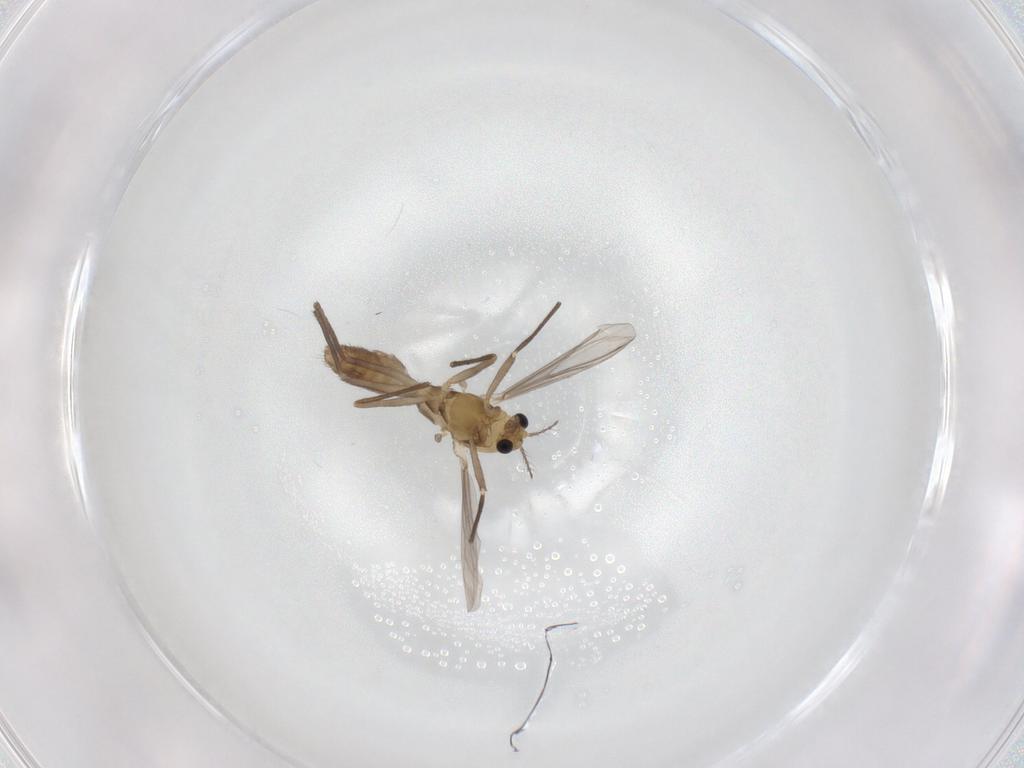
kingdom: Animalia
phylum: Arthropoda
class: Insecta
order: Diptera
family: Chironomidae
